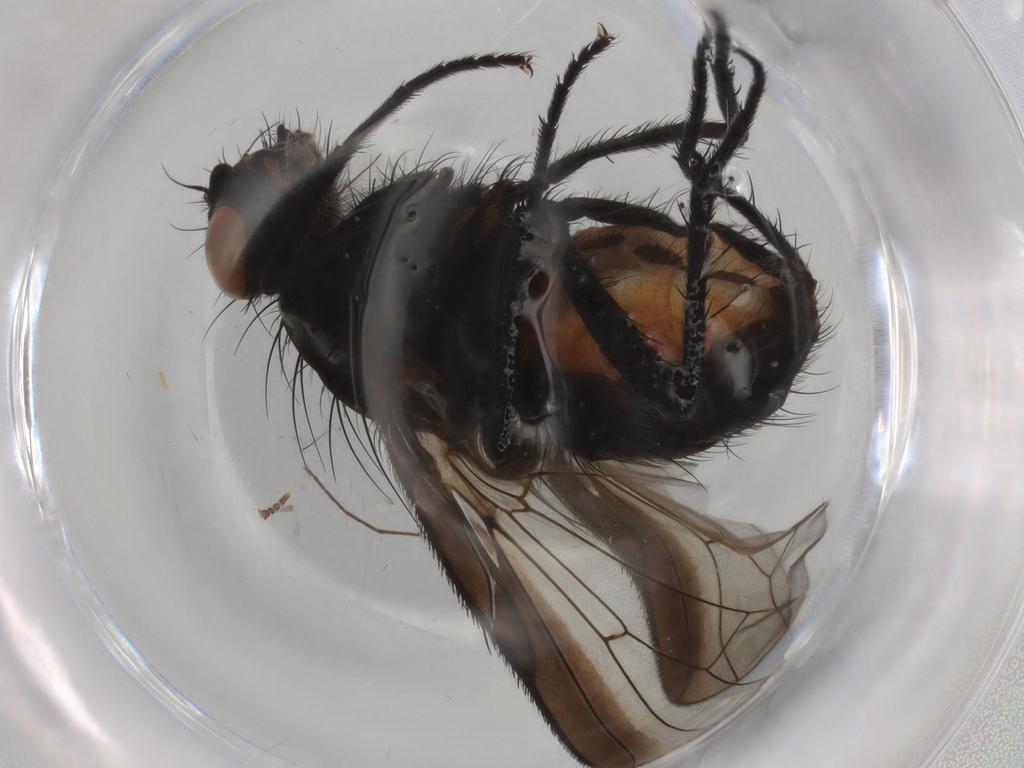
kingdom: Animalia
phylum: Arthropoda
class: Insecta
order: Diptera
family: Anthomyiidae
